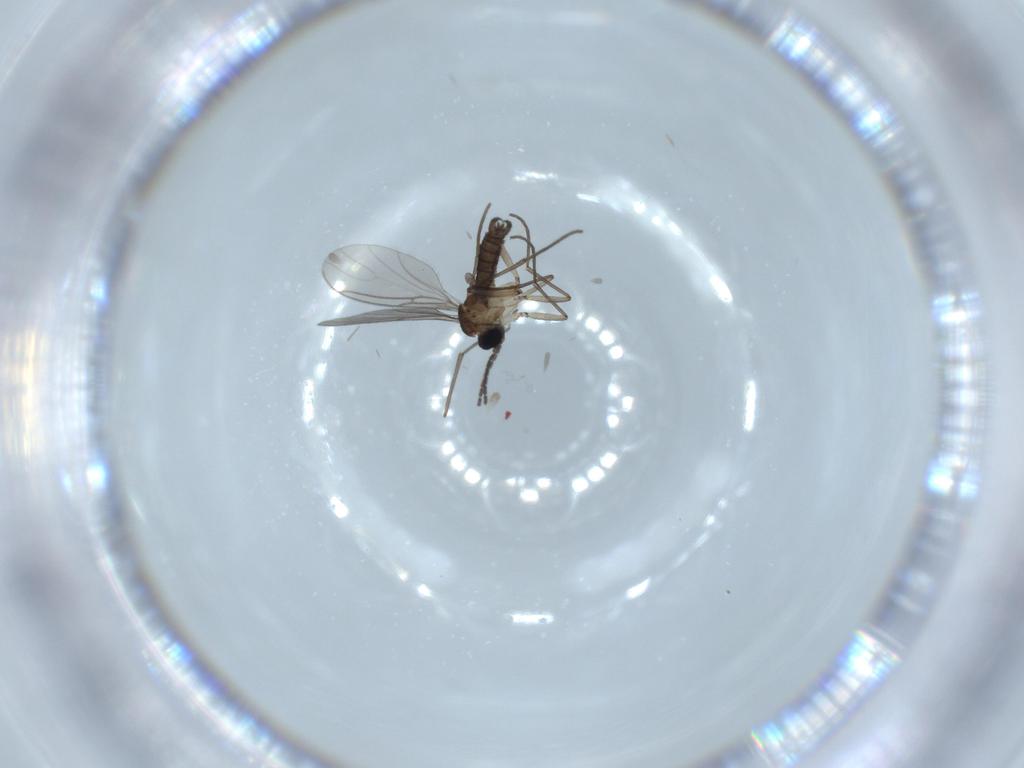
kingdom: Animalia
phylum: Arthropoda
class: Insecta
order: Diptera
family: Sciaridae
